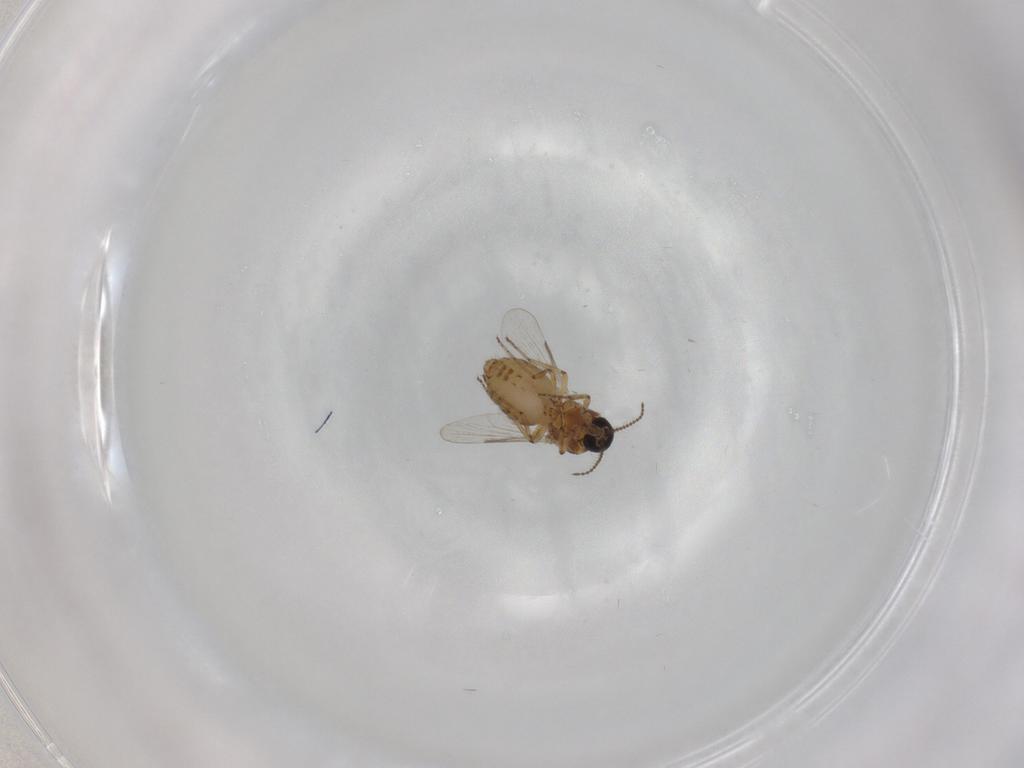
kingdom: Animalia
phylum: Arthropoda
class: Insecta
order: Diptera
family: Ceratopogonidae
